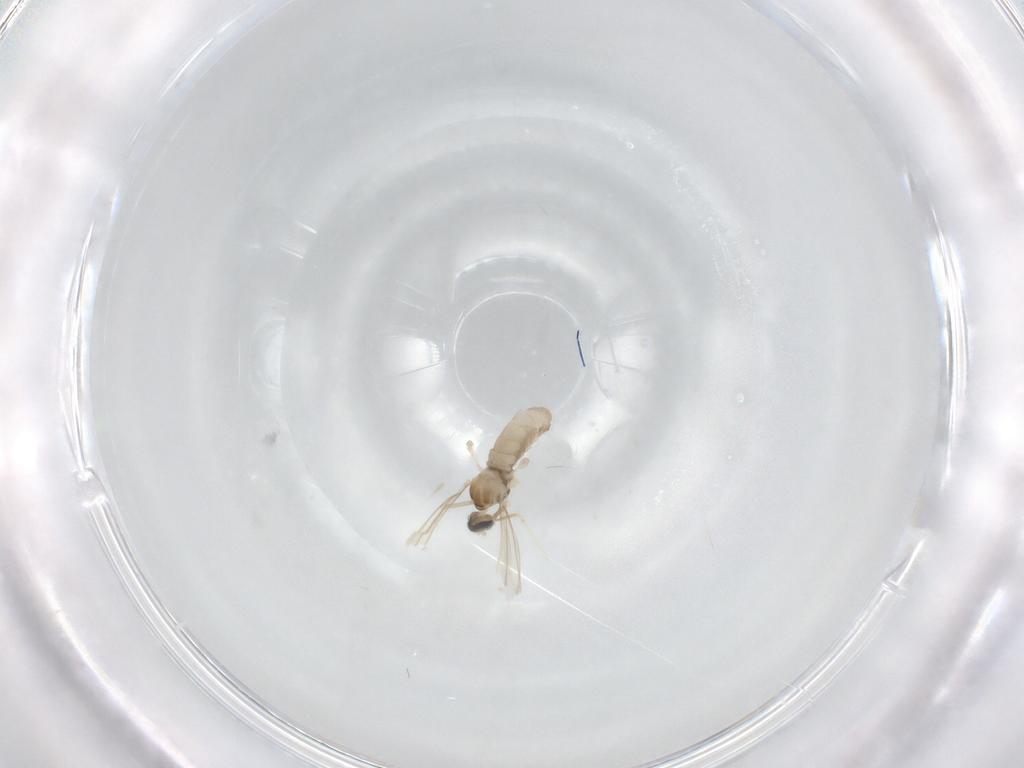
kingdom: Animalia
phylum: Arthropoda
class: Insecta
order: Diptera
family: Cecidomyiidae
